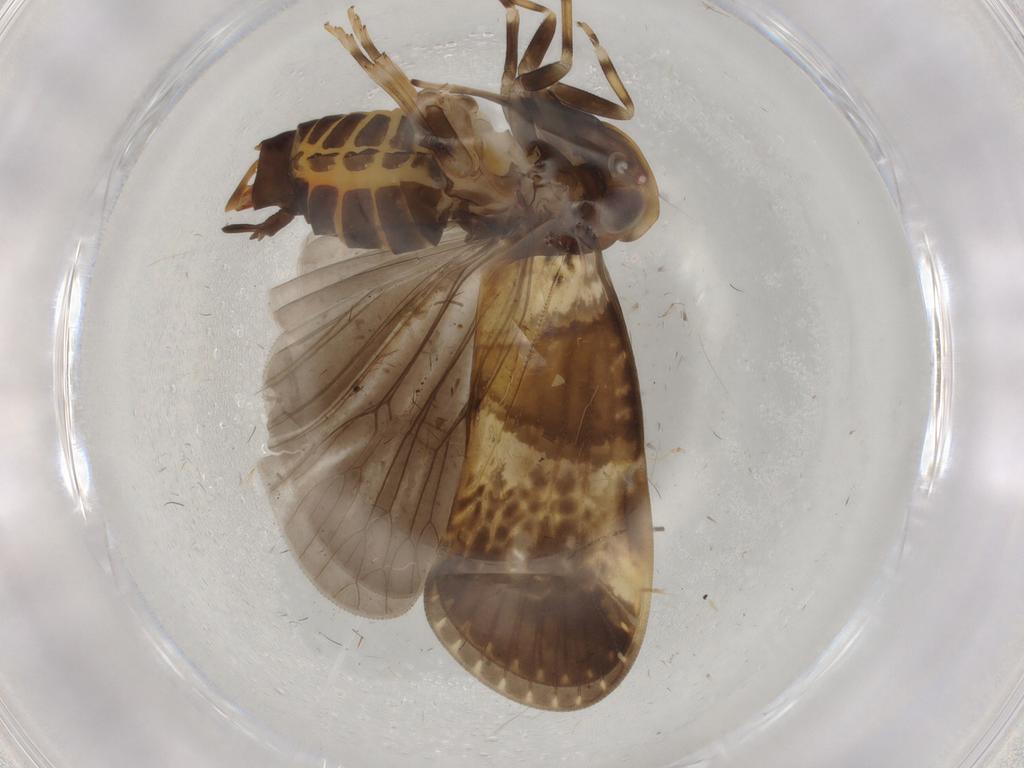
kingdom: Animalia
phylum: Arthropoda
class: Insecta
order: Hemiptera
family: Cixiidae
